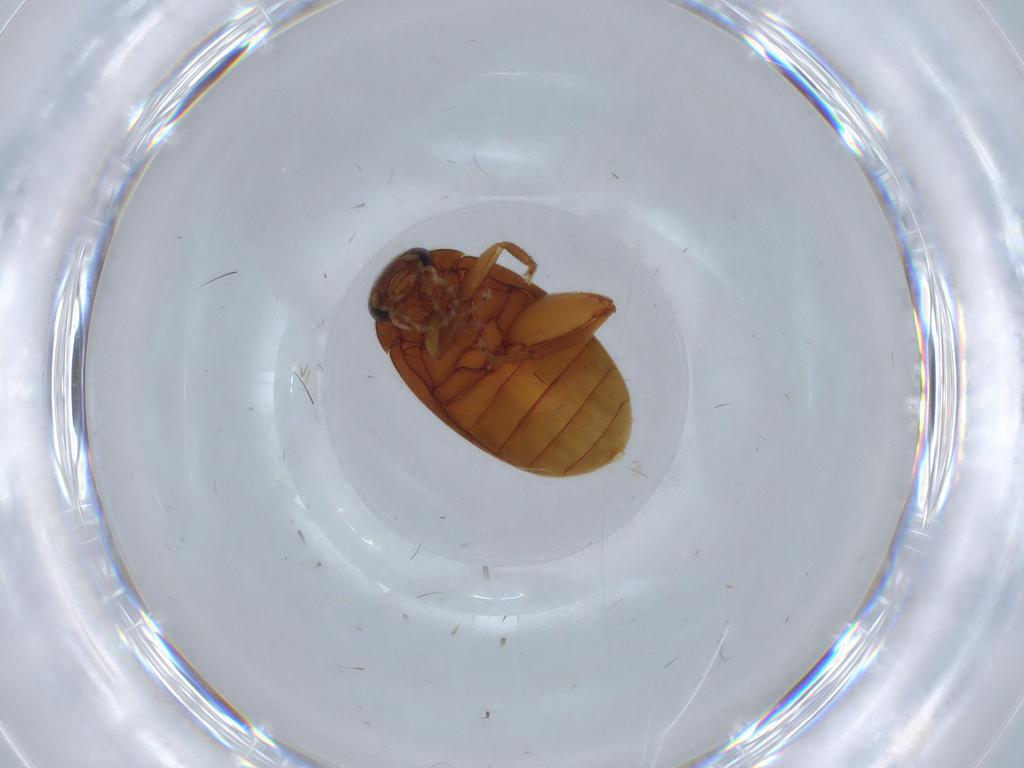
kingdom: Animalia
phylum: Arthropoda
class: Insecta
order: Coleoptera
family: Scirtidae
